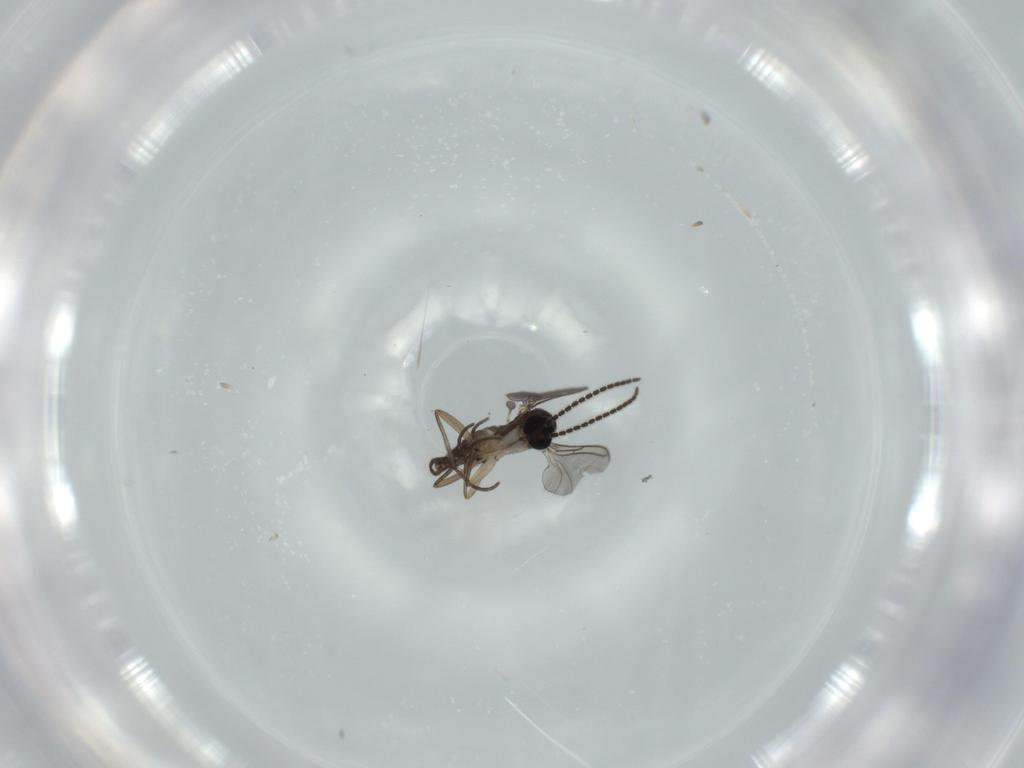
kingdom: Animalia
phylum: Arthropoda
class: Insecta
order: Diptera
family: Sciaridae
